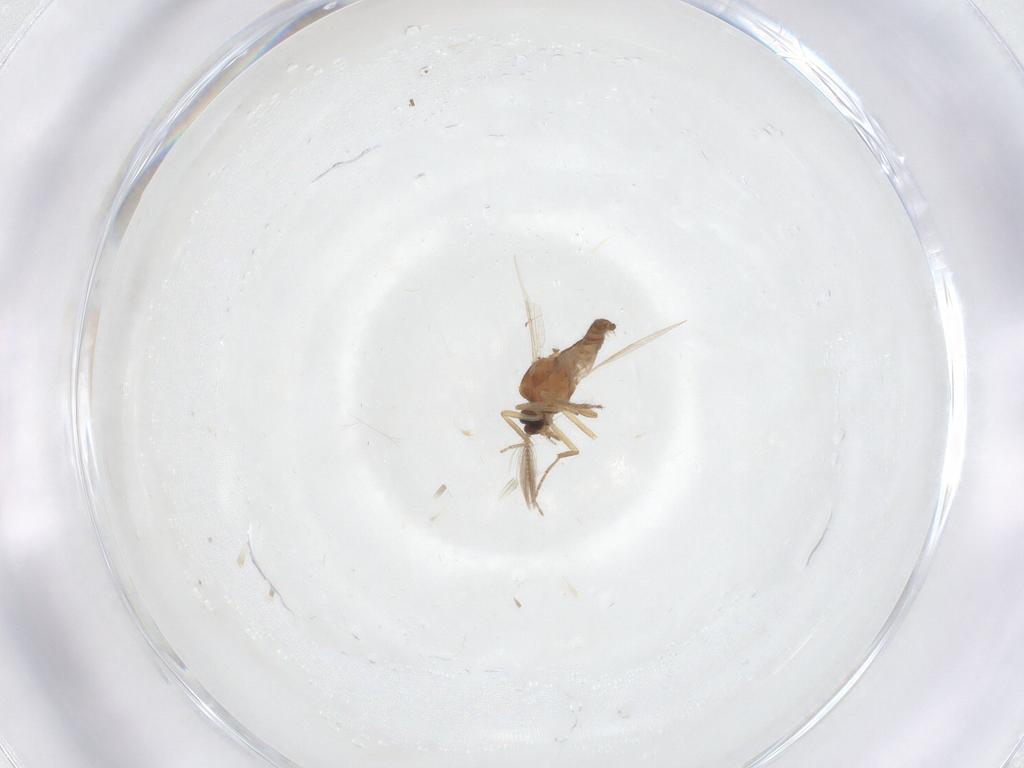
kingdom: Animalia
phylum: Arthropoda
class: Insecta
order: Diptera
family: Ceratopogonidae
